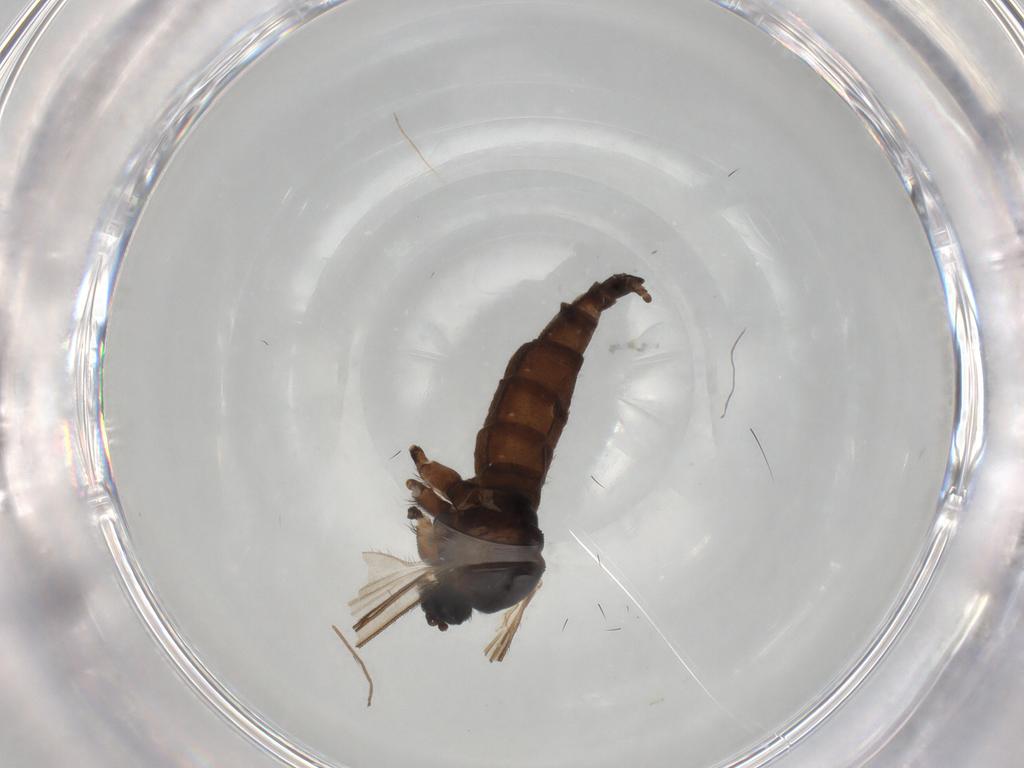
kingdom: Animalia
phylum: Arthropoda
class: Insecta
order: Diptera
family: Sciaridae
